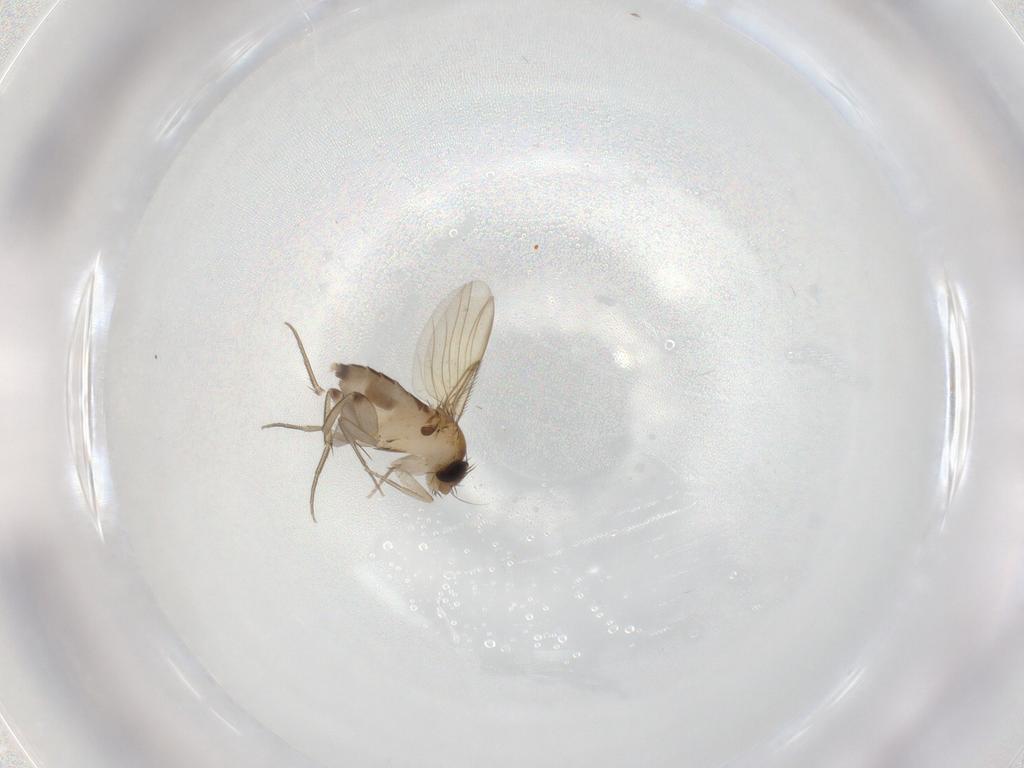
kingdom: Animalia
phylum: Arthropoda
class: Insecta
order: Diptera
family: Phoridae
